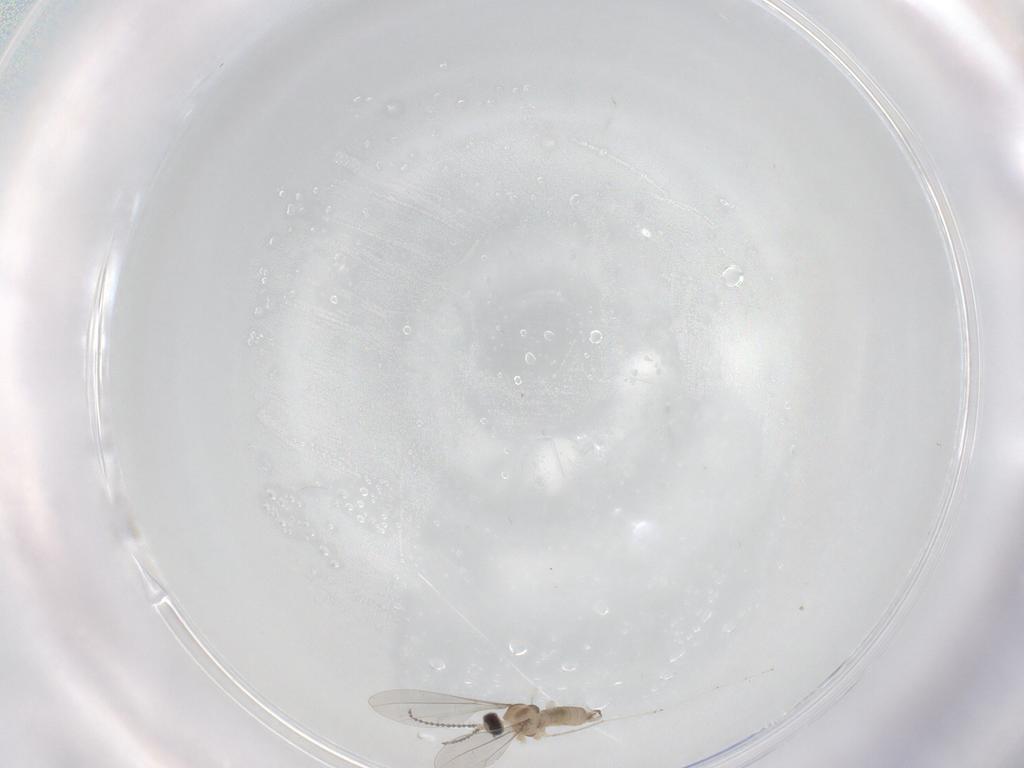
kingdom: Animalia
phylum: Arthropoda
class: Insecta
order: Diptera
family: Cecidomyiidae
